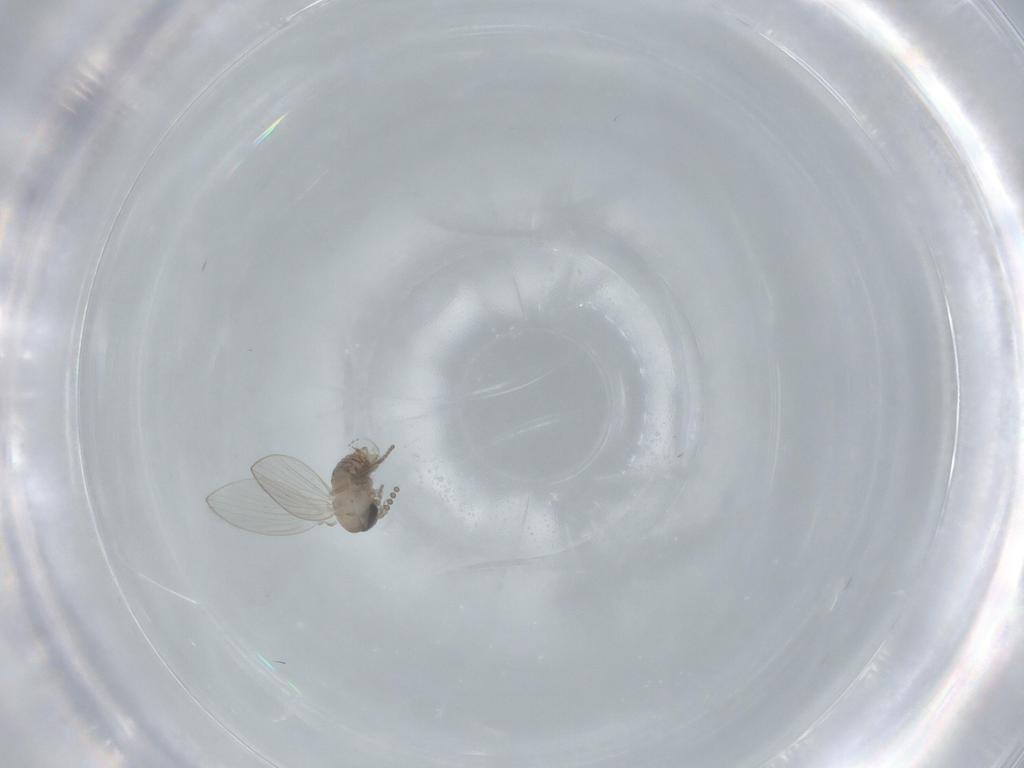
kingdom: Animalia
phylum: Arthropoda
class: Insecta
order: Diptera
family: Psychodidae
